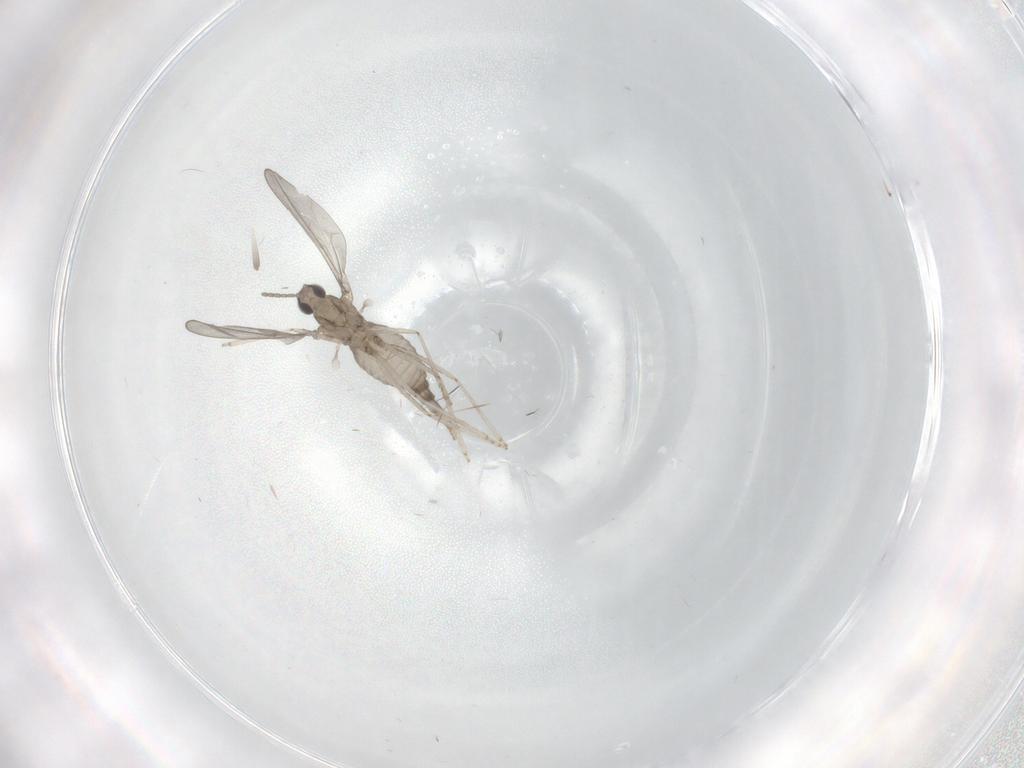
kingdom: Animalia
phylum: Arthropoda
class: Insecta
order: Diptera
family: Cecidomyiidae
